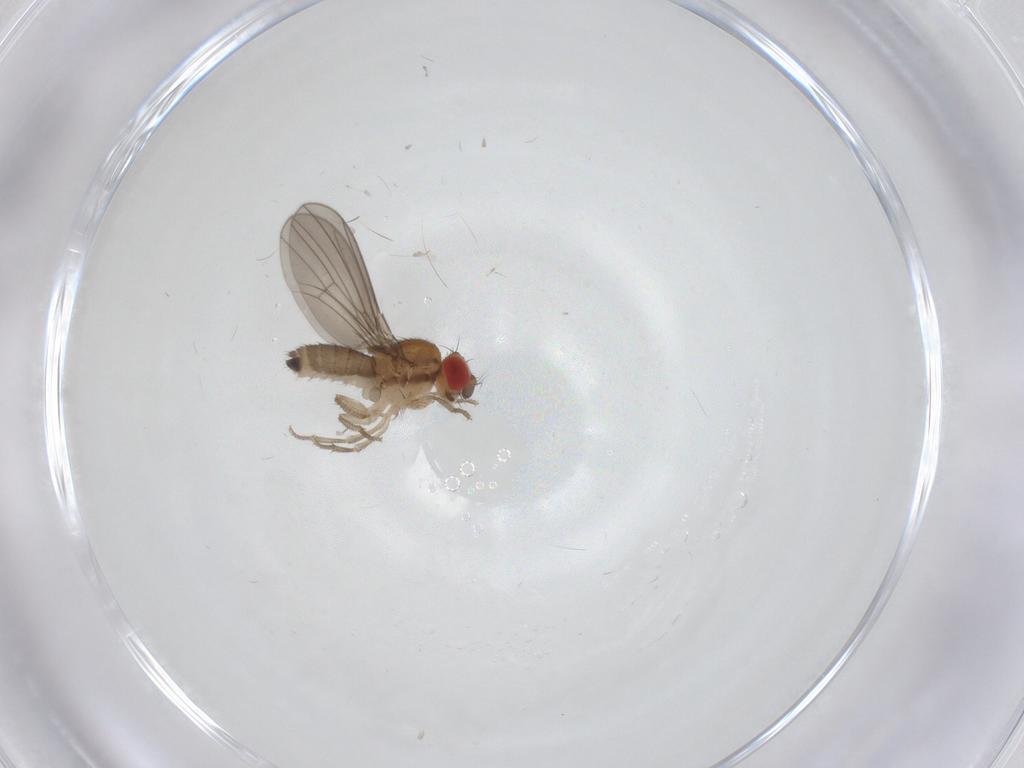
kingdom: Animalia
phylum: Arthropoda
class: Insecta
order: Diptera
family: Drosophilidae
